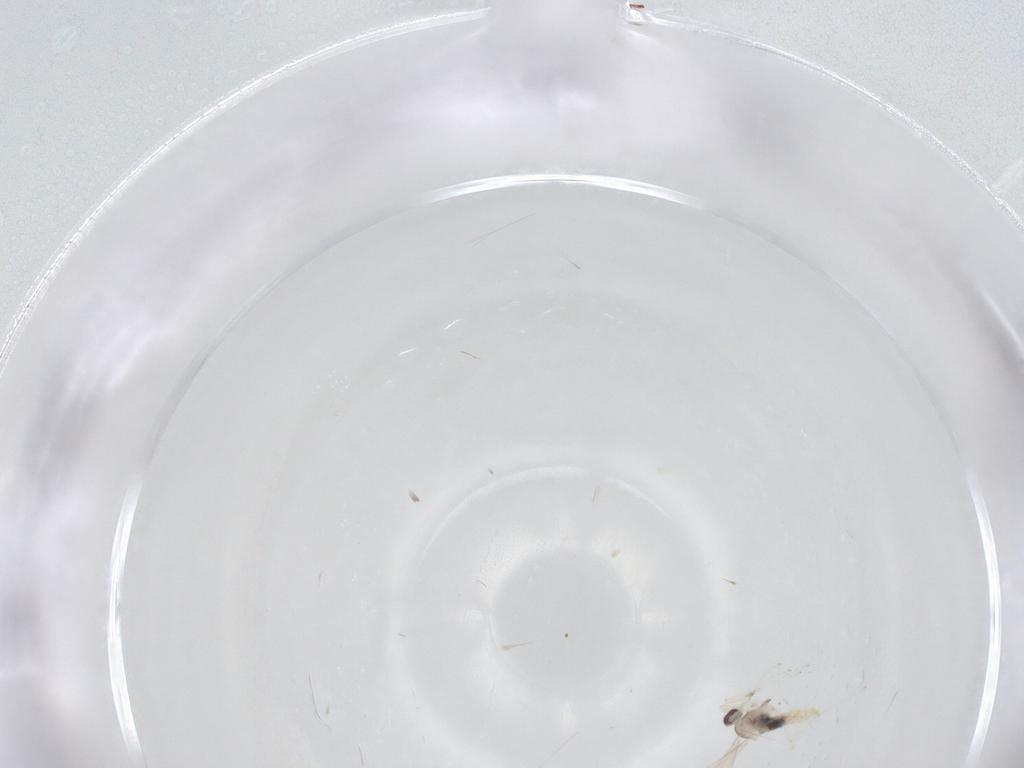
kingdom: Animalia
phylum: Arthropoda
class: Insecta
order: Diptera
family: Cecidomyiidae
